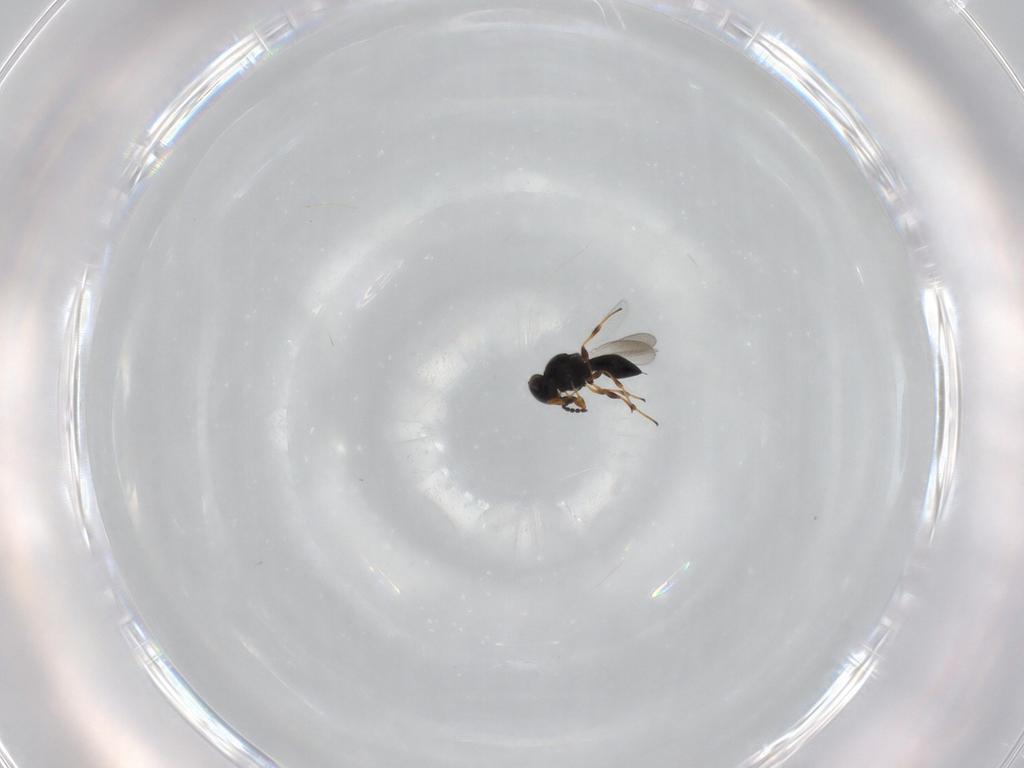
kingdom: Animalia
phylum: Arthropoda
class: Insecta
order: Hymenoptera
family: Platygastridae
